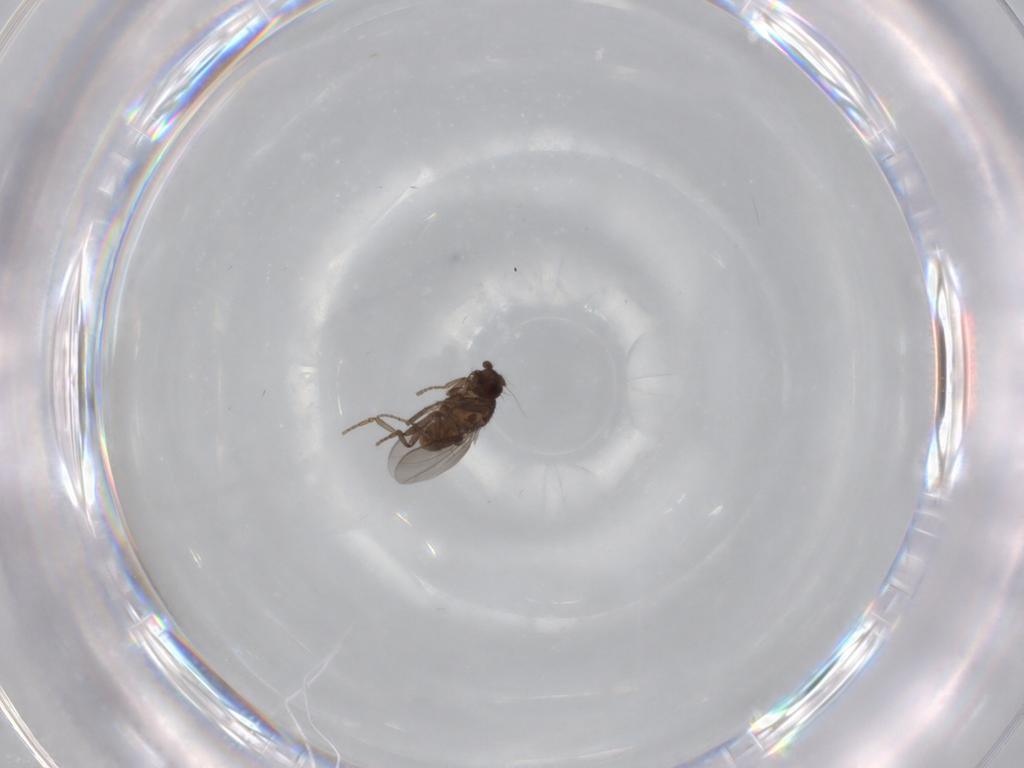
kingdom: Animalia
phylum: Arthropoda
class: Insecta
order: Diptera
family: Sphaeroceridae
